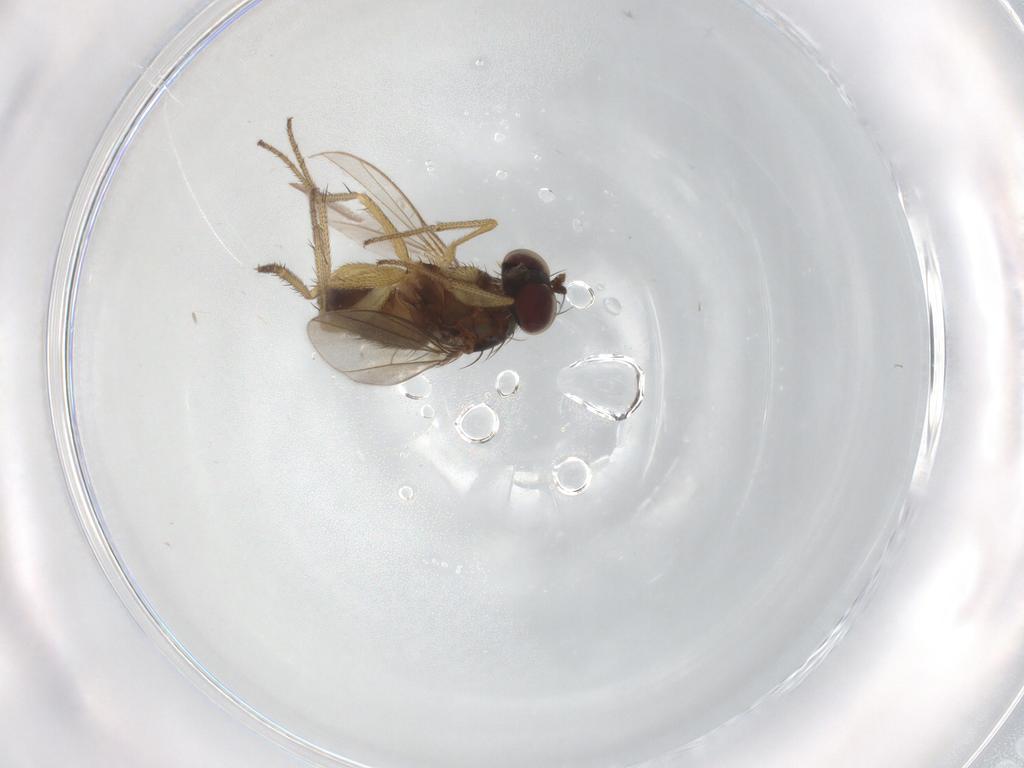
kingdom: Animalia
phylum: Arthropoda
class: Insecta
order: Diptera
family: Dolichopodidae
